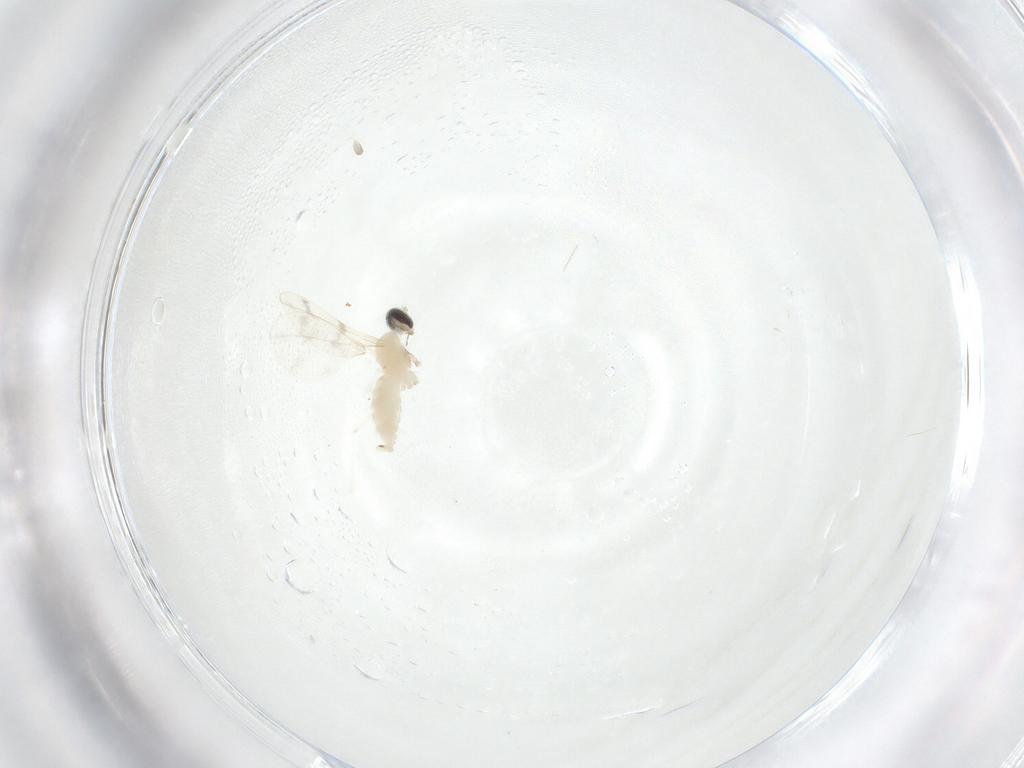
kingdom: Animalia
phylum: Arthropoda
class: Insecta
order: Diptera
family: Cecidomyiidae
